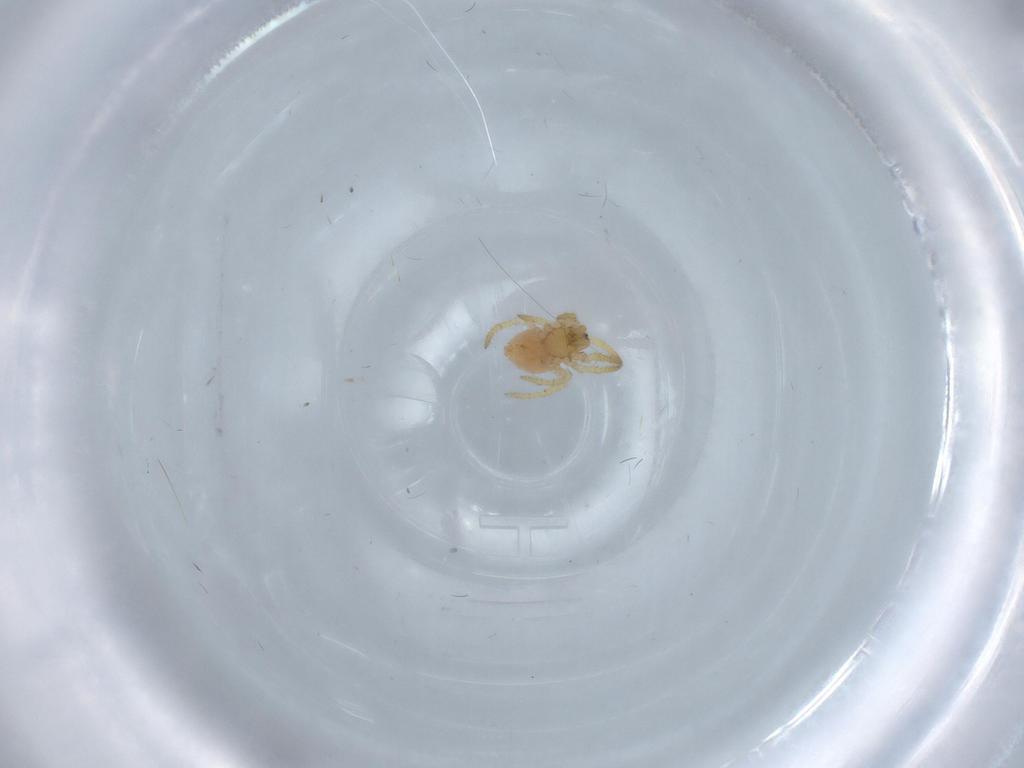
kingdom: Animalia
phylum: Arthropoda
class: Arachnida
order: Araneae
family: Theridiidae
